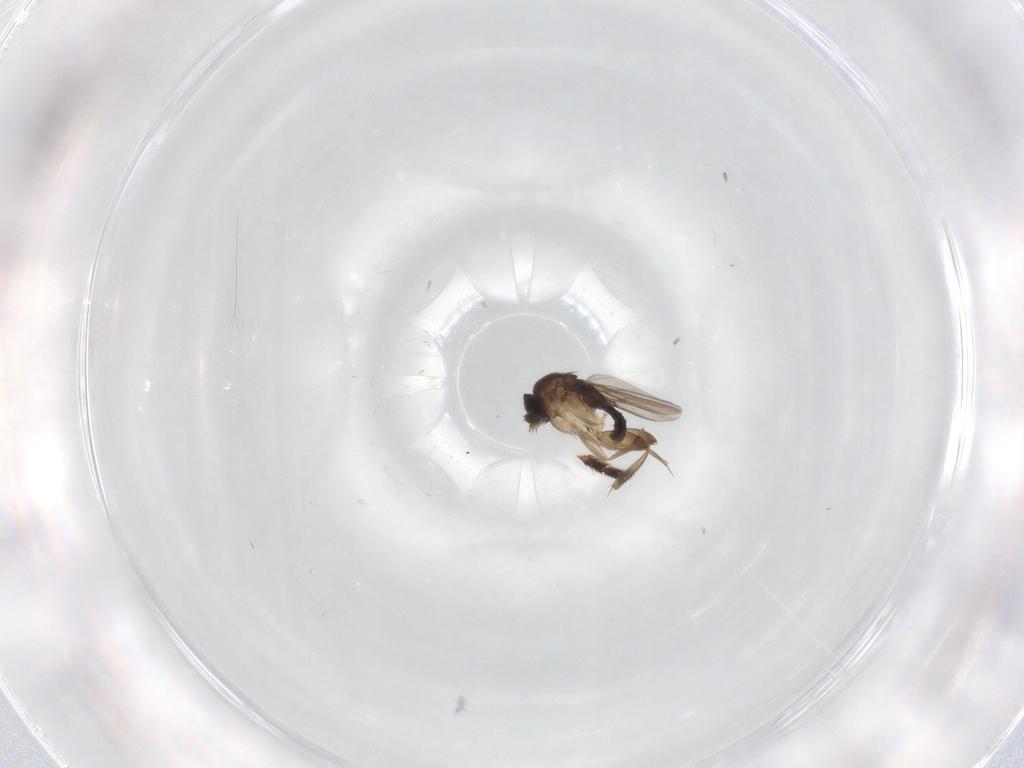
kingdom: Animalia
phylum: Arthropoda
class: Insecta
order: Diptera
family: Phoridae
